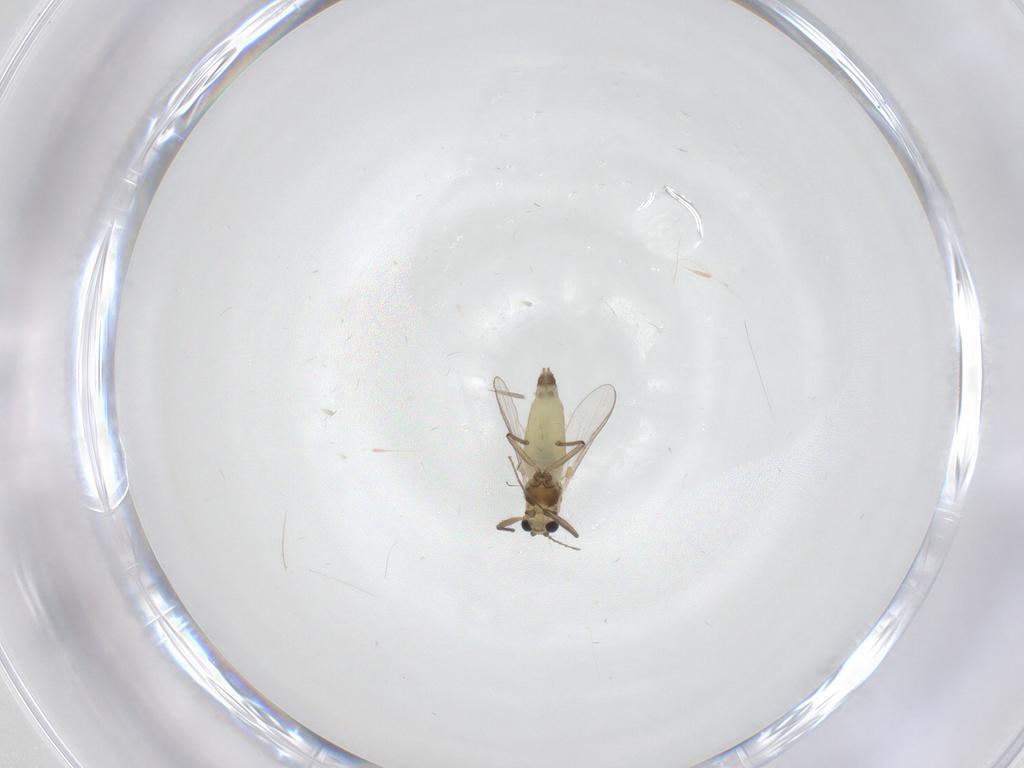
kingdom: Animalia
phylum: Arthropoda
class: Insecta
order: Diptera
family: Chironomidae
